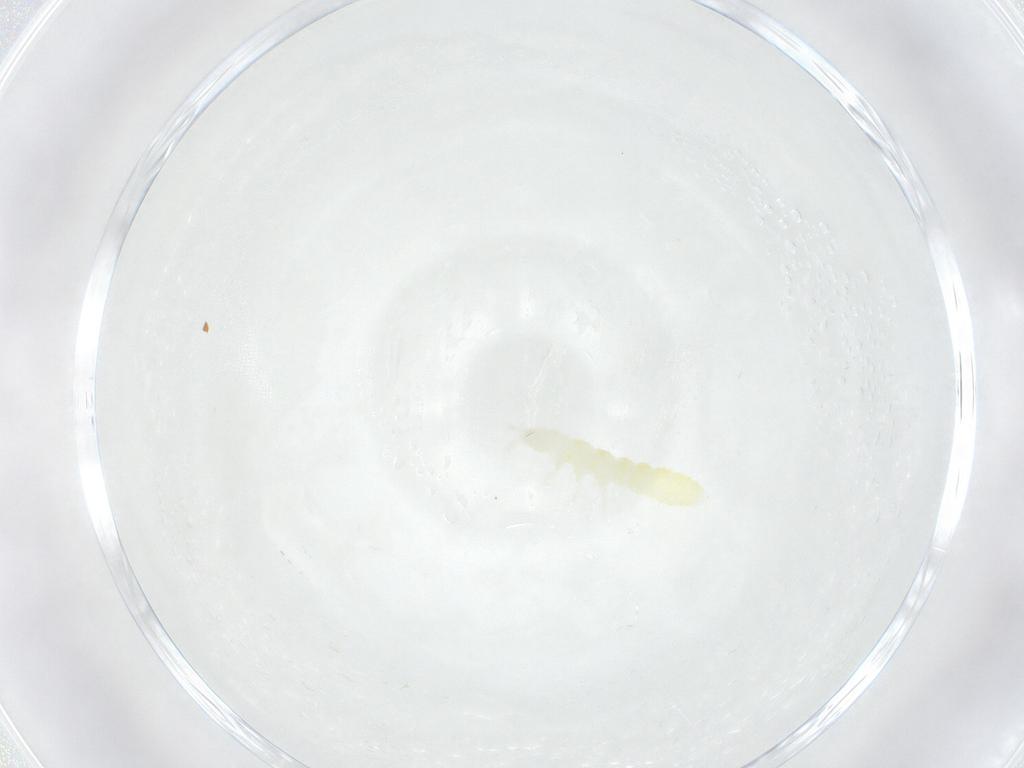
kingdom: Animalia
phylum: Arthropoda
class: Collembola
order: Poduromorpha
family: Onychiuridae
